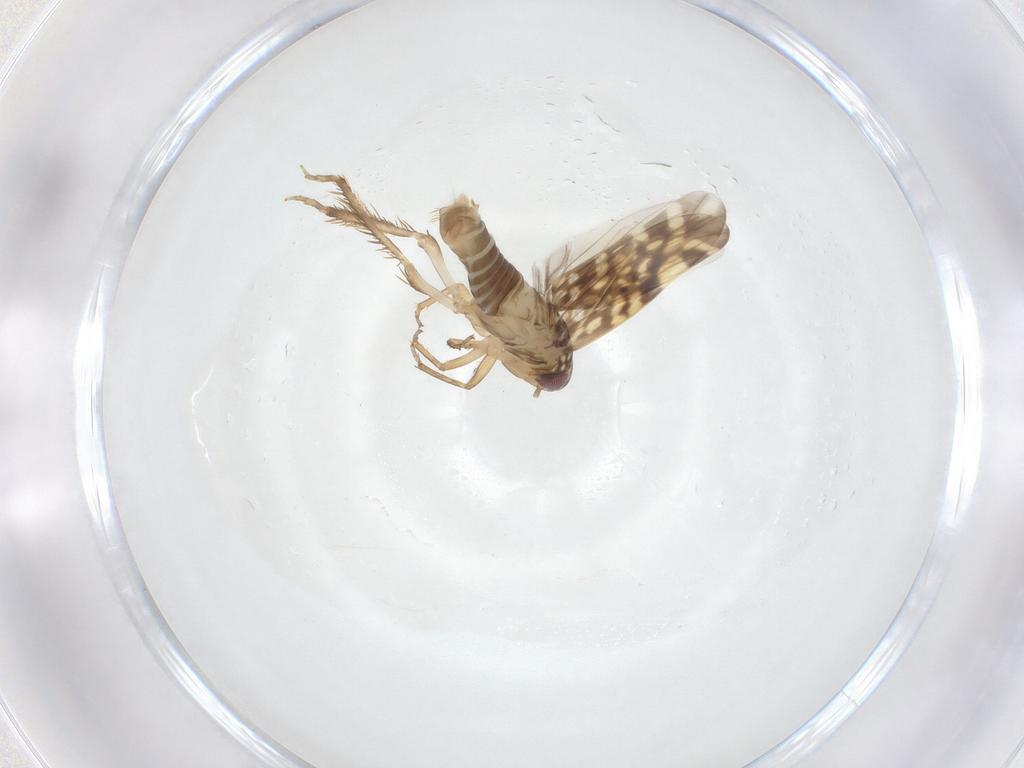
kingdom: Animalia
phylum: Arthropoda
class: Insecta
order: Hemiptera
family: Cicadellidae
